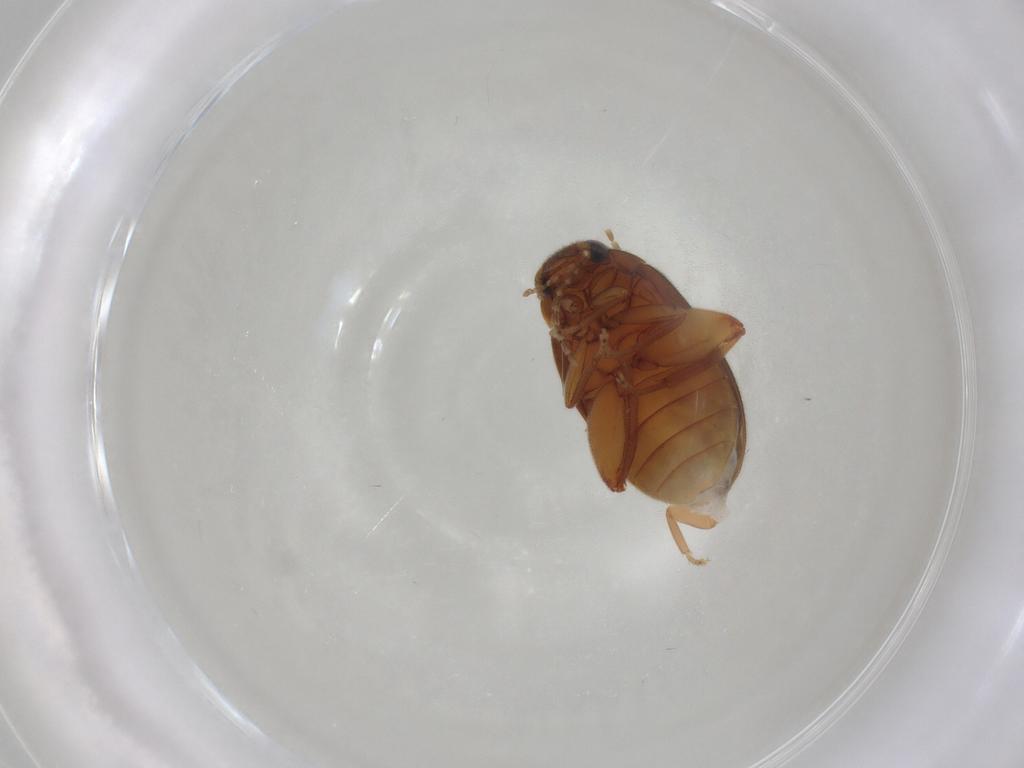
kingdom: Animalia
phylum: Arthropoda
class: Insecta
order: Coleoptera
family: Scirtidae
